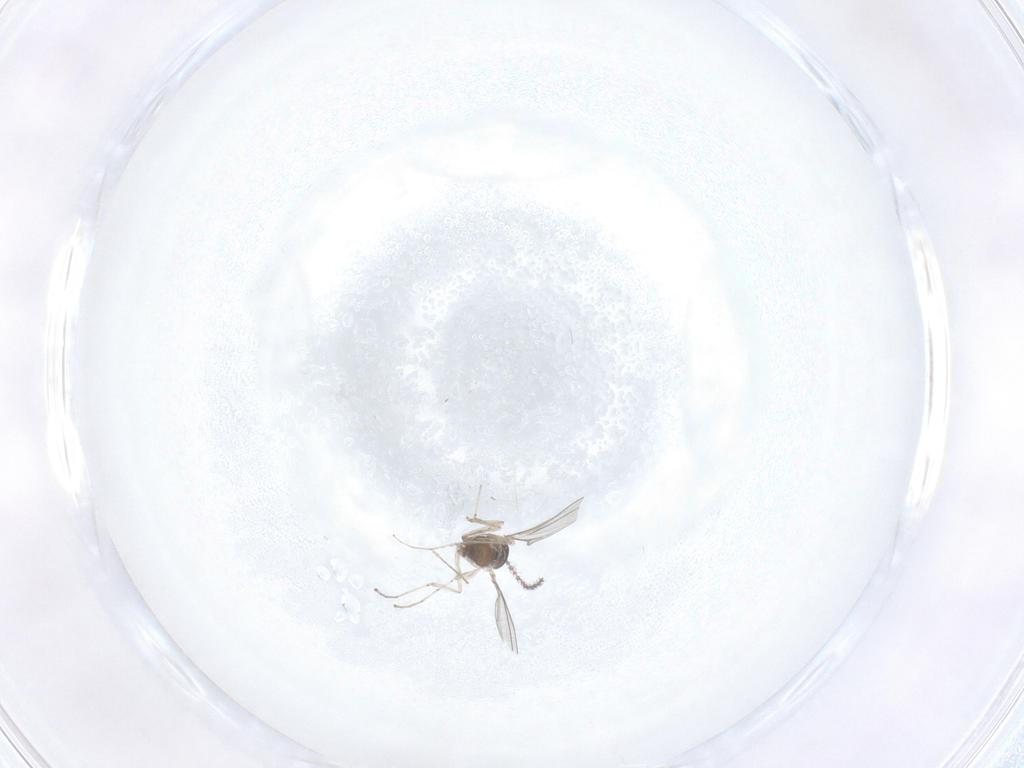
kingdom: Animalia
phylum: Arthropoda
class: Insecta
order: Diptera
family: Cecidomyiidae
